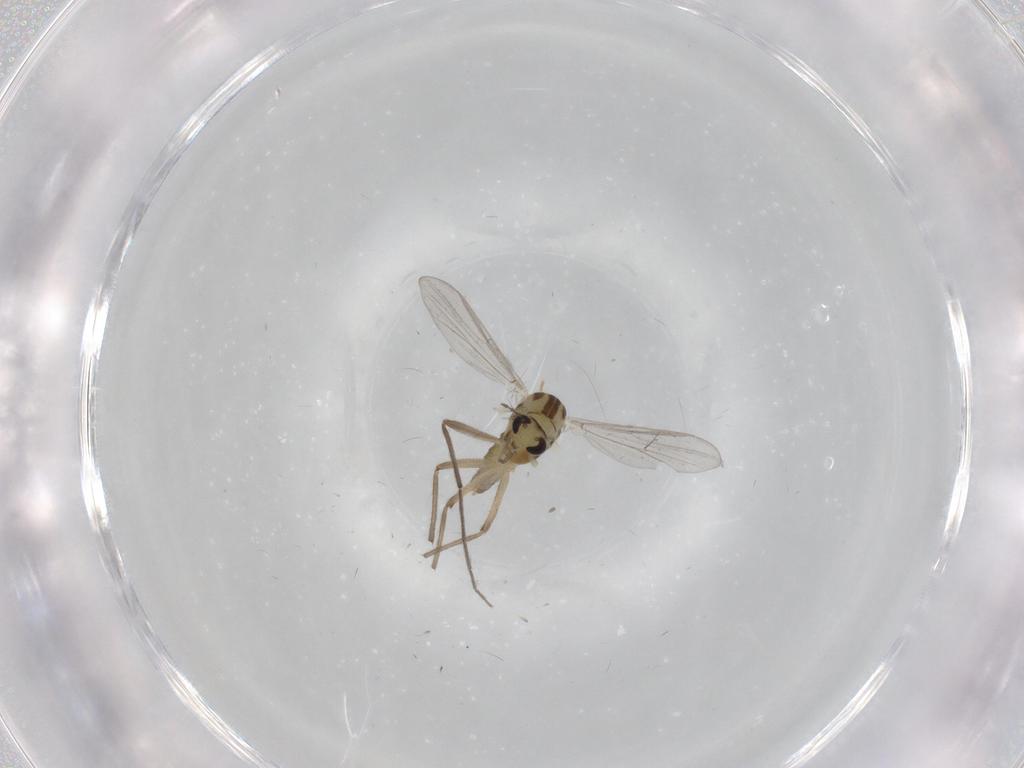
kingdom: Animalia
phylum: Arthropoda
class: Insecta
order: Diptera
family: Chironomidae
